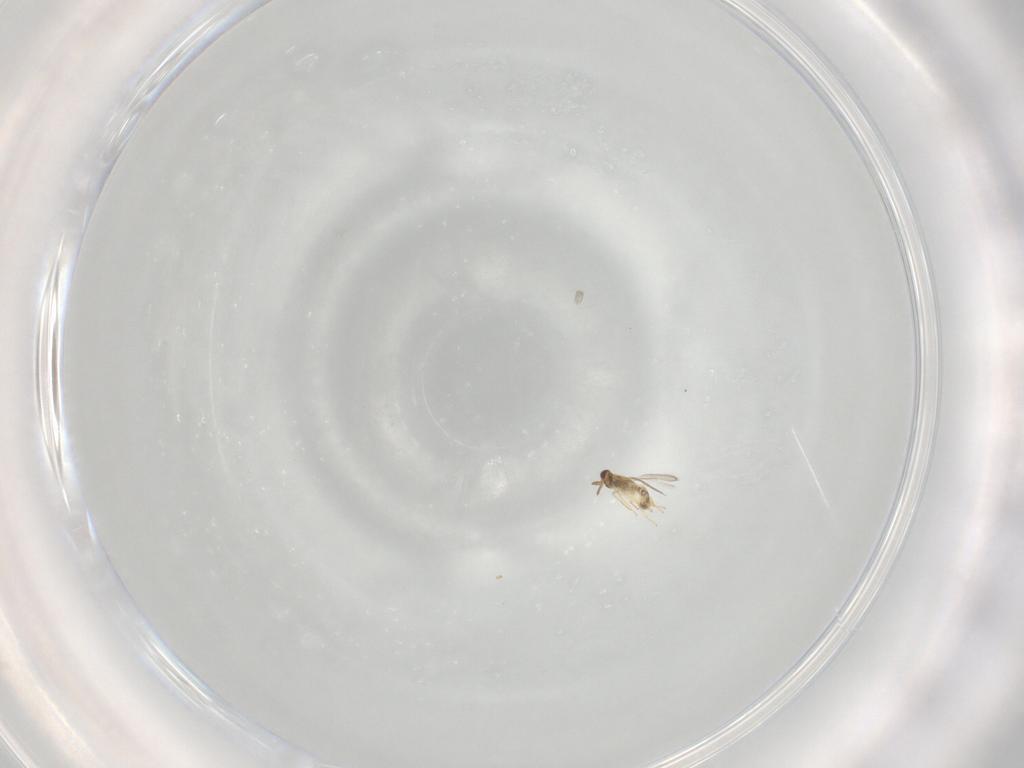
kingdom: Animalia
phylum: Arthropoda
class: Insecta
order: Hymenoptera
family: Aphelinidae
